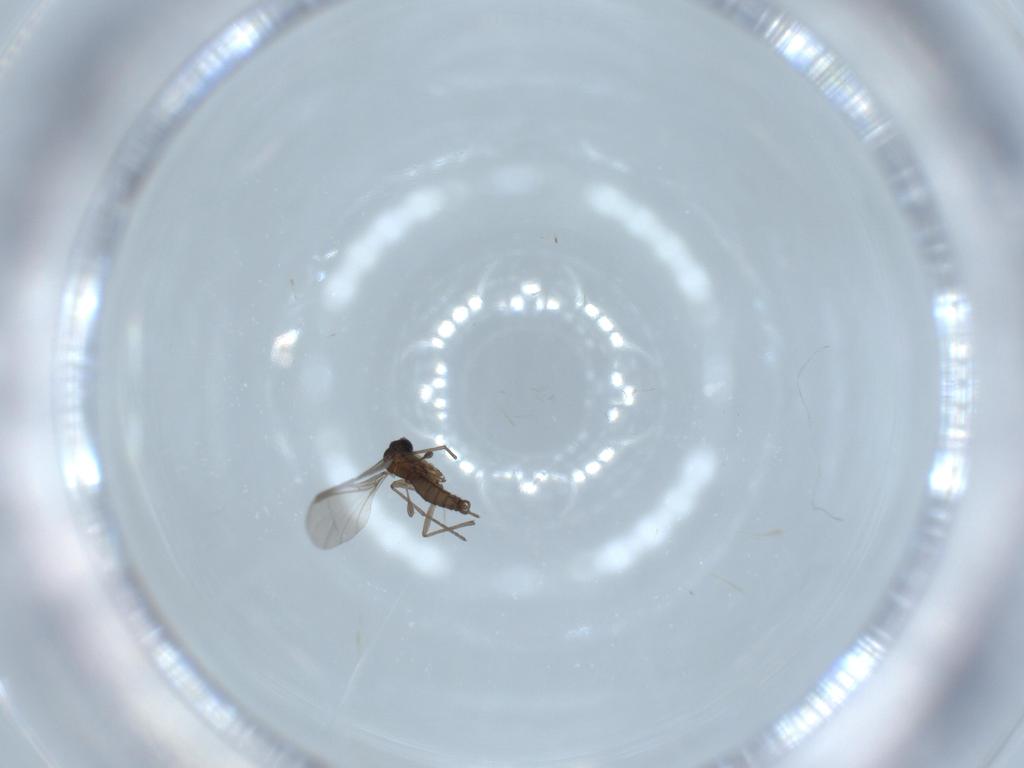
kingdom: Animalia
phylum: Arthropoda
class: Insecta
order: Diptera
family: Sciaridae
